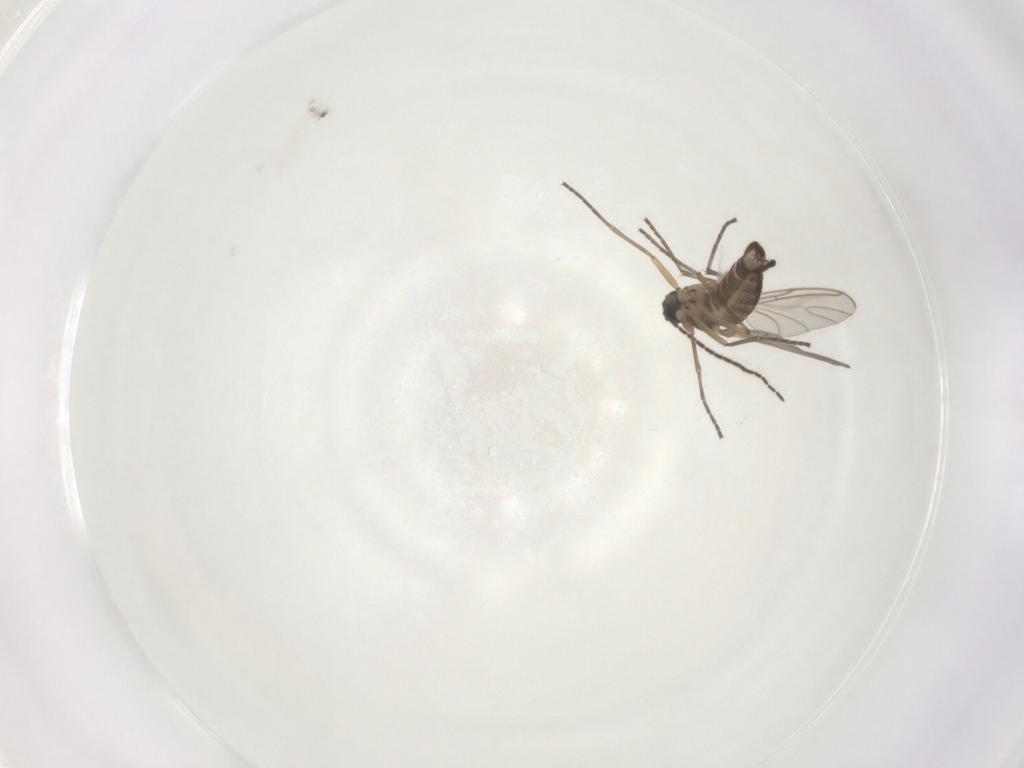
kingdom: Animalia
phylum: Arthropoda
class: Insecta
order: Diptera
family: Sciaridae
